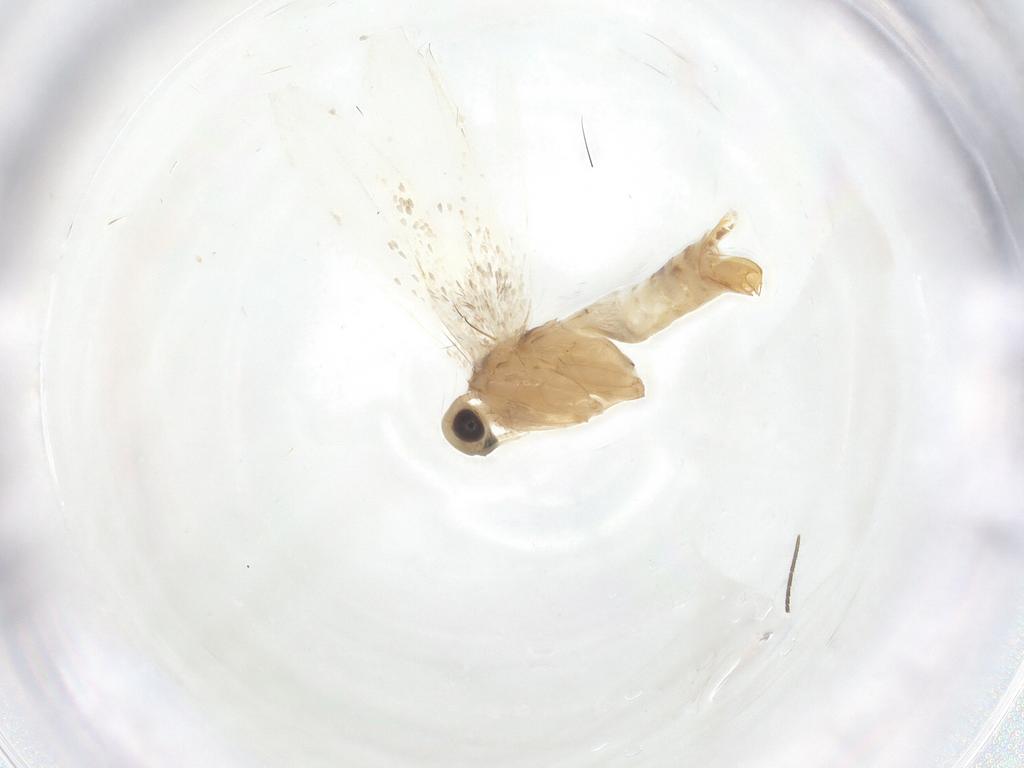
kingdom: Animalia
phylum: Arthropoda
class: Insecta
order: Lepidoptera
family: Gracillariidae
